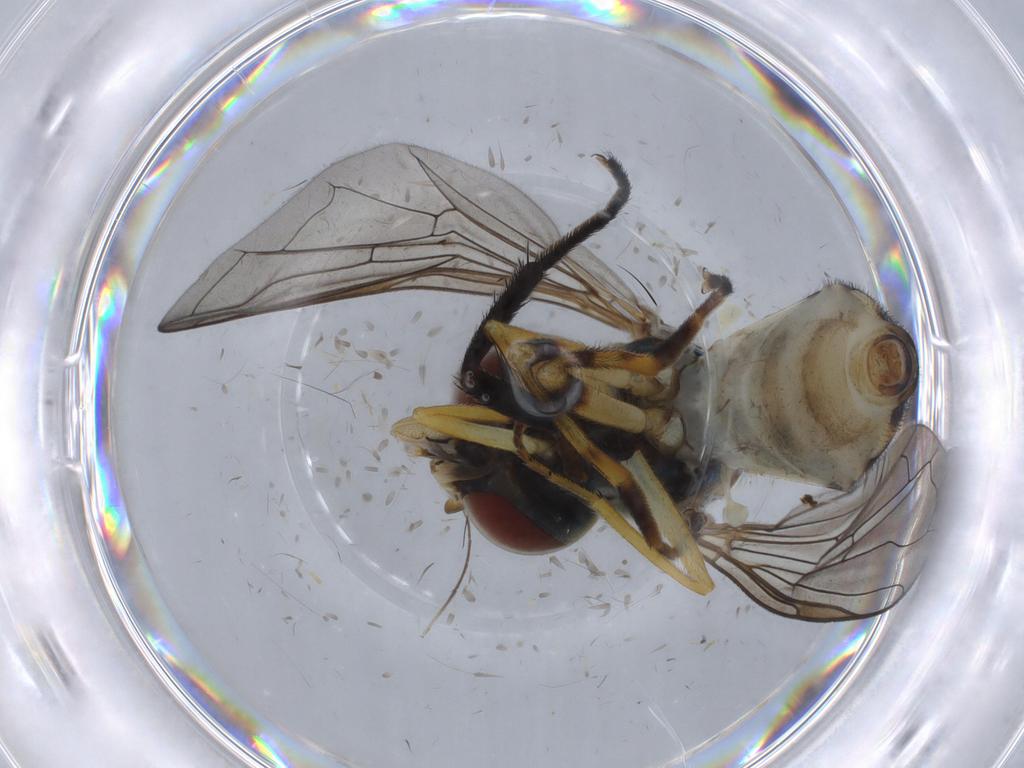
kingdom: Animalia
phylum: Arthropoda
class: Insecta
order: Diptera
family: Syrphidae
